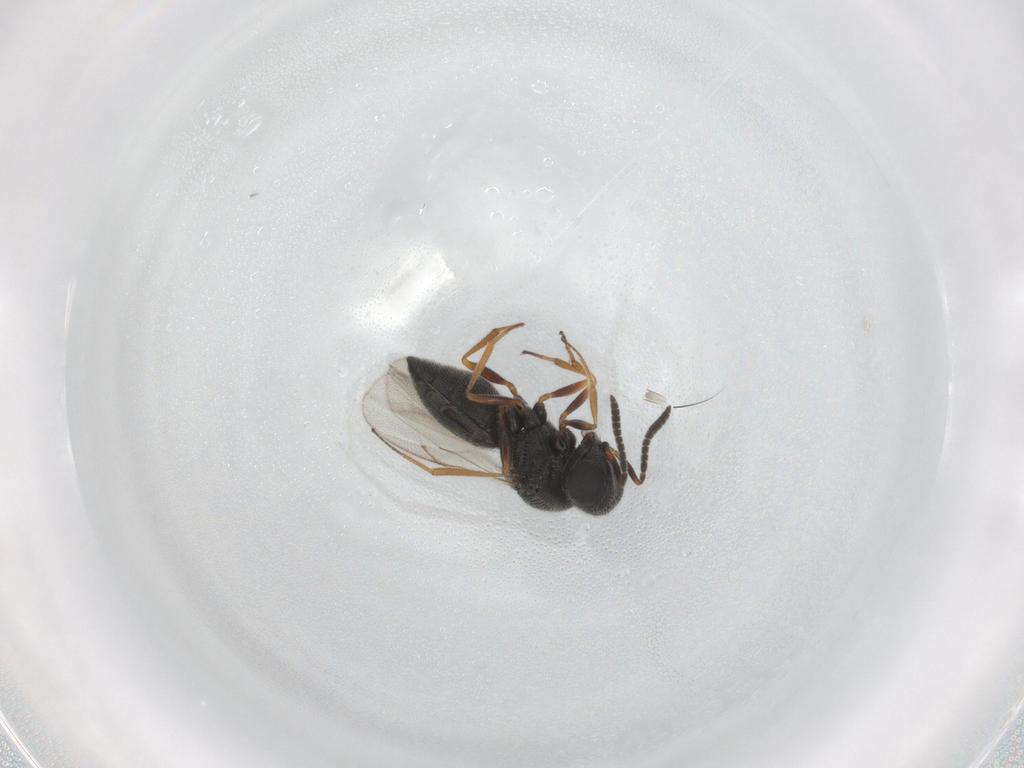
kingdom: Animalia
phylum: Arthropoda
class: Insecta
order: Hymenoptera
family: Scelionidae
